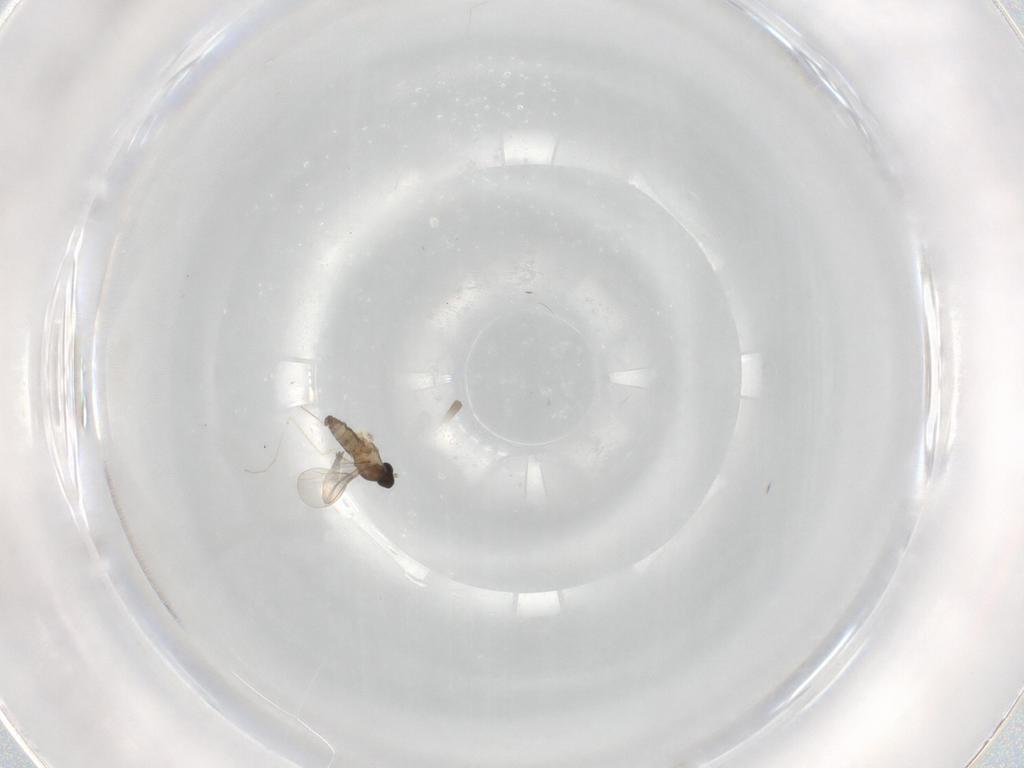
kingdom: Animalia
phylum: Arthropoda
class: Insecta
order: Diptera
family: Cecidomyiidae
